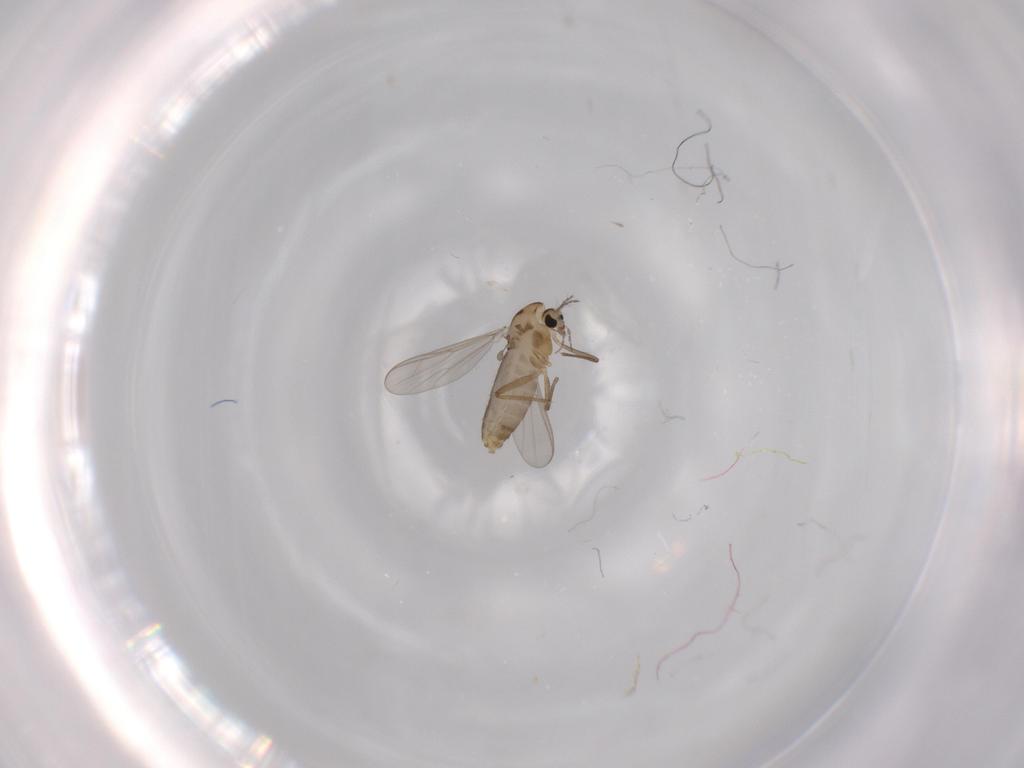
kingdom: Animalia
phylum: Arthropoda
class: Insecta
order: Diptera
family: Chironomidae
